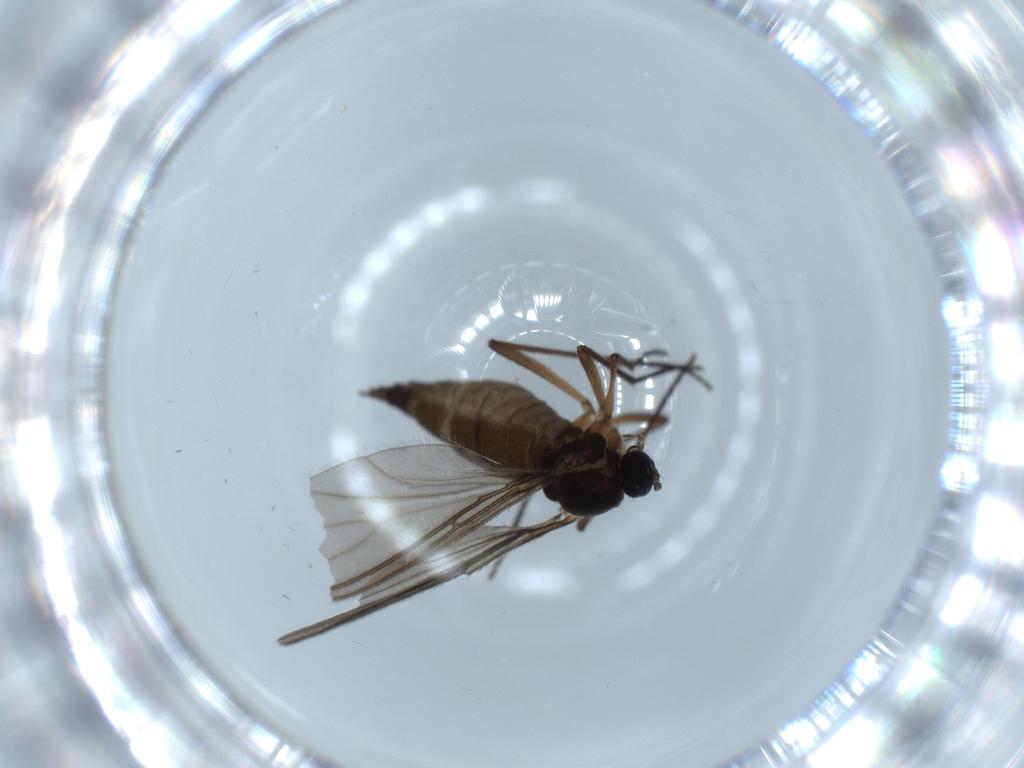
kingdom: Animalia
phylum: Arthropoda
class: Insecta
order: Diptera
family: Sciaridae
